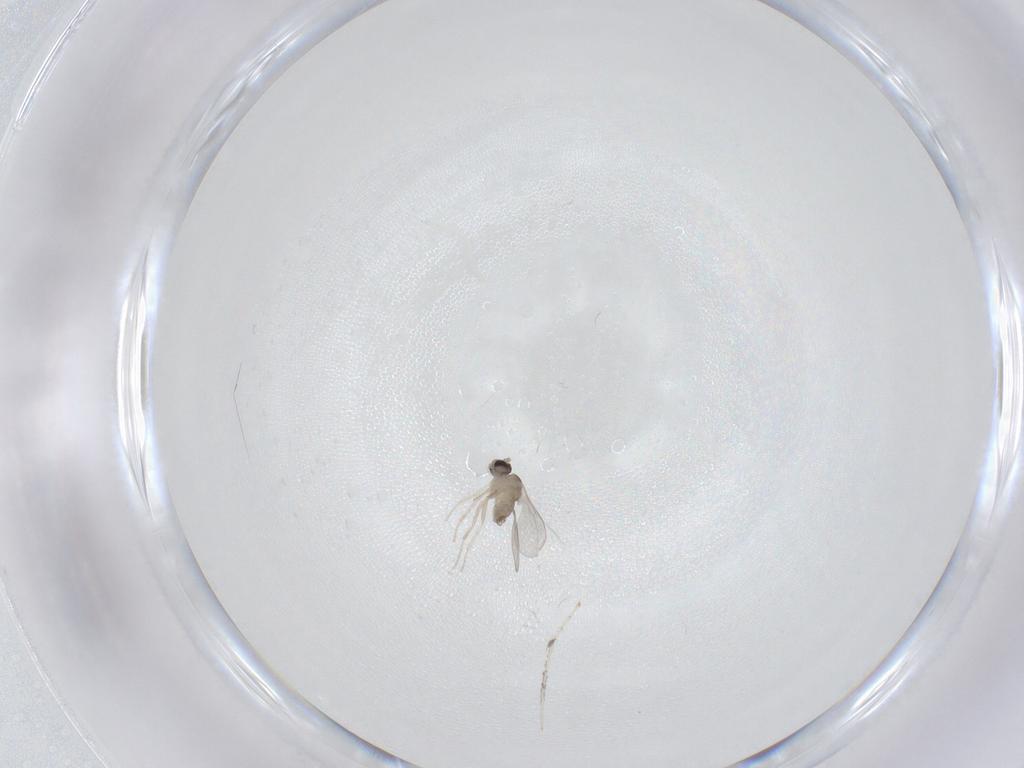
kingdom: Animalia
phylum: Arthropoda
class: Insecta
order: Diptera
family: Cecidomyiidae
